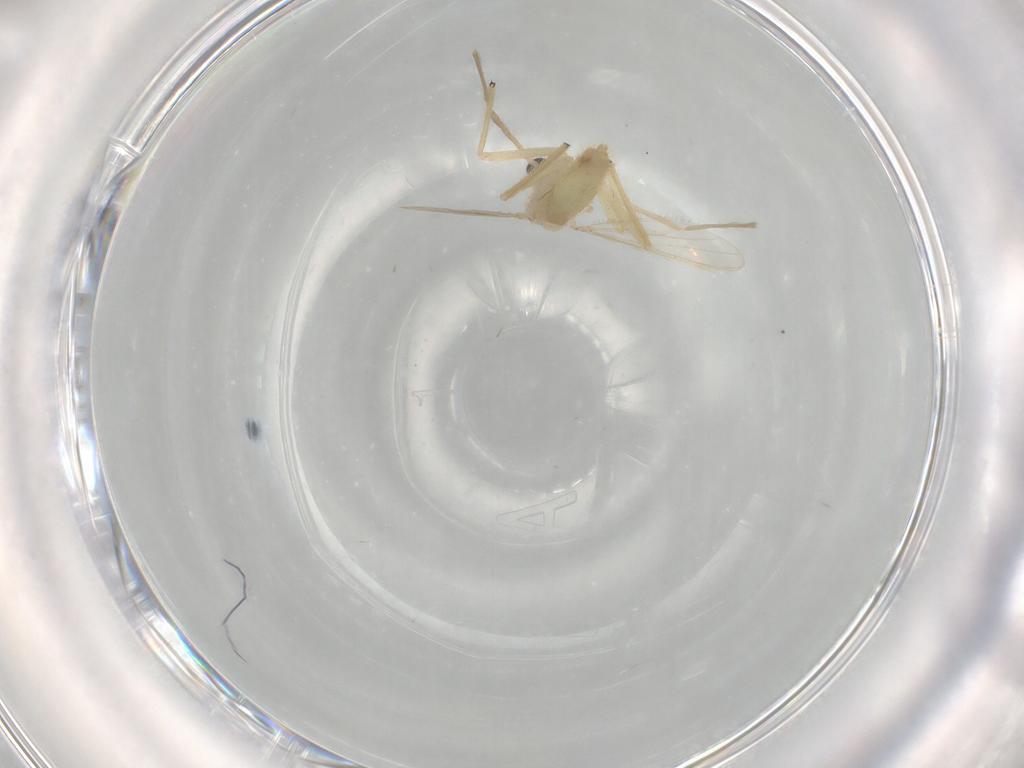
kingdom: Animalia
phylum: Arthropoda
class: Insecta
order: Diptera
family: Chironomidae
